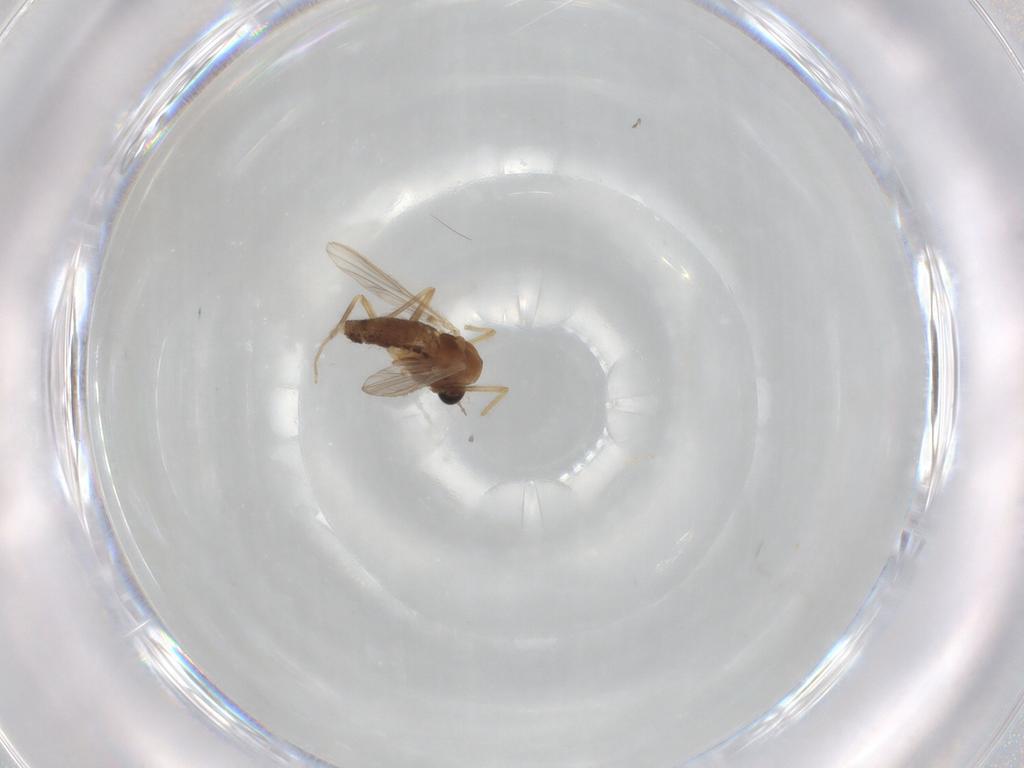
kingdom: Animalia
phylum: Arthropoda
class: Insecta
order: Diptera
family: Chironomidae
